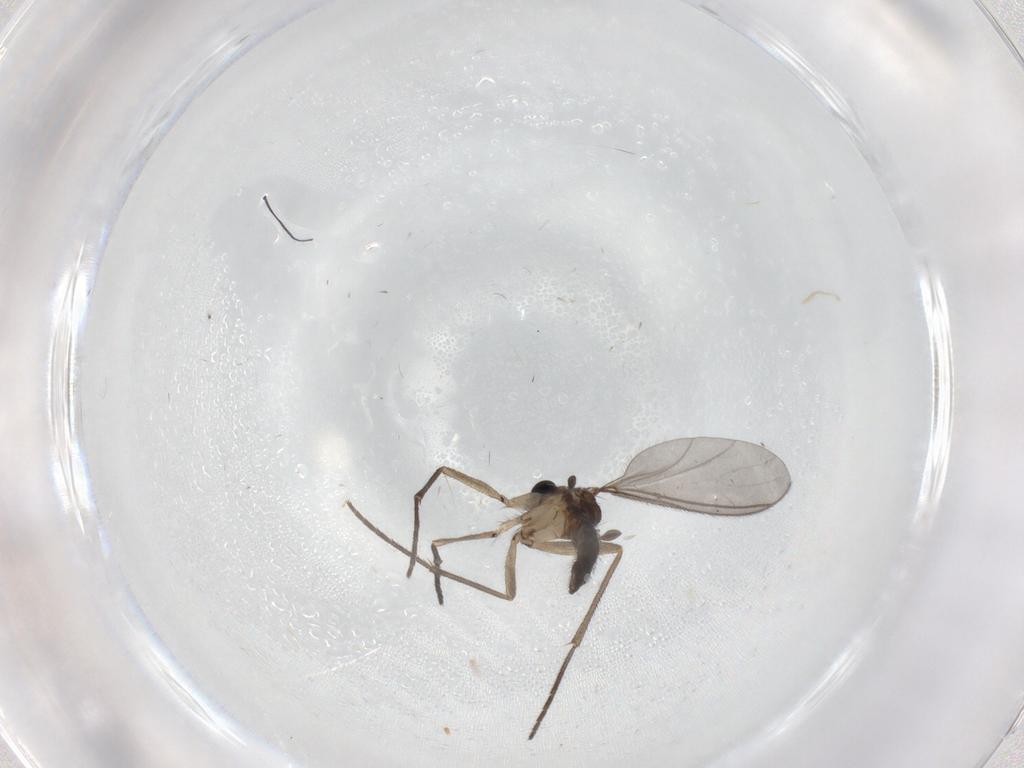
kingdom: Animalia
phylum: Arthropoda
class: Insecta
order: Diptera
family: Sciaridae
